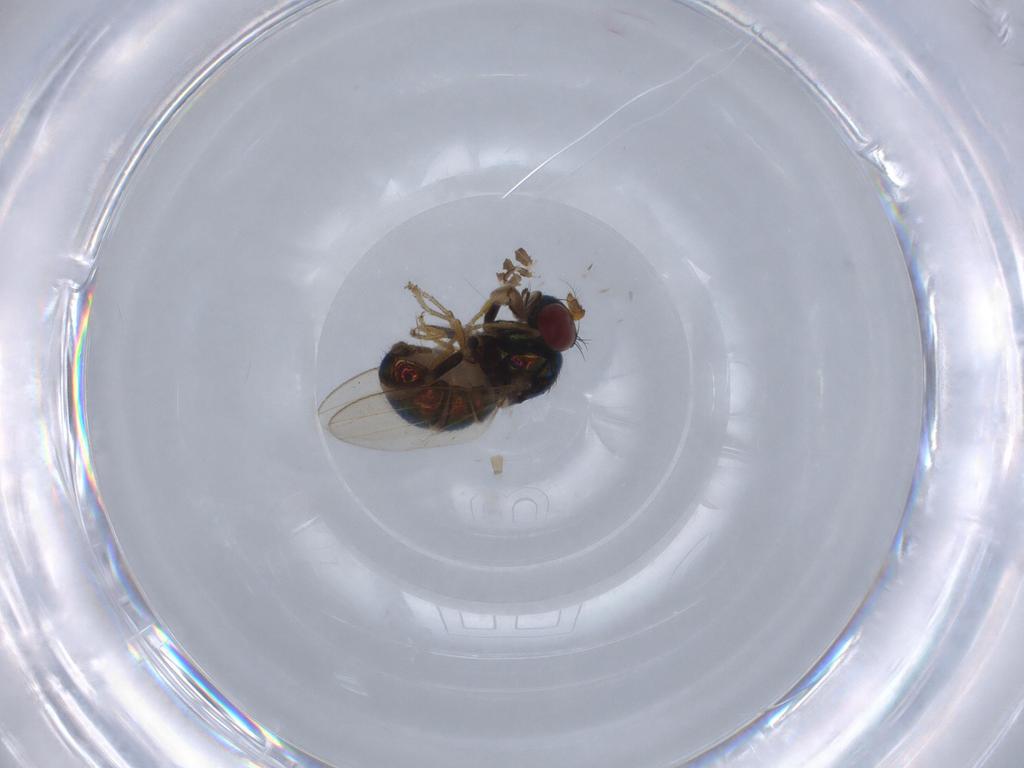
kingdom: Animalia
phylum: Arthropoda
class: Insecta
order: Diptera
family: Ephydridae
